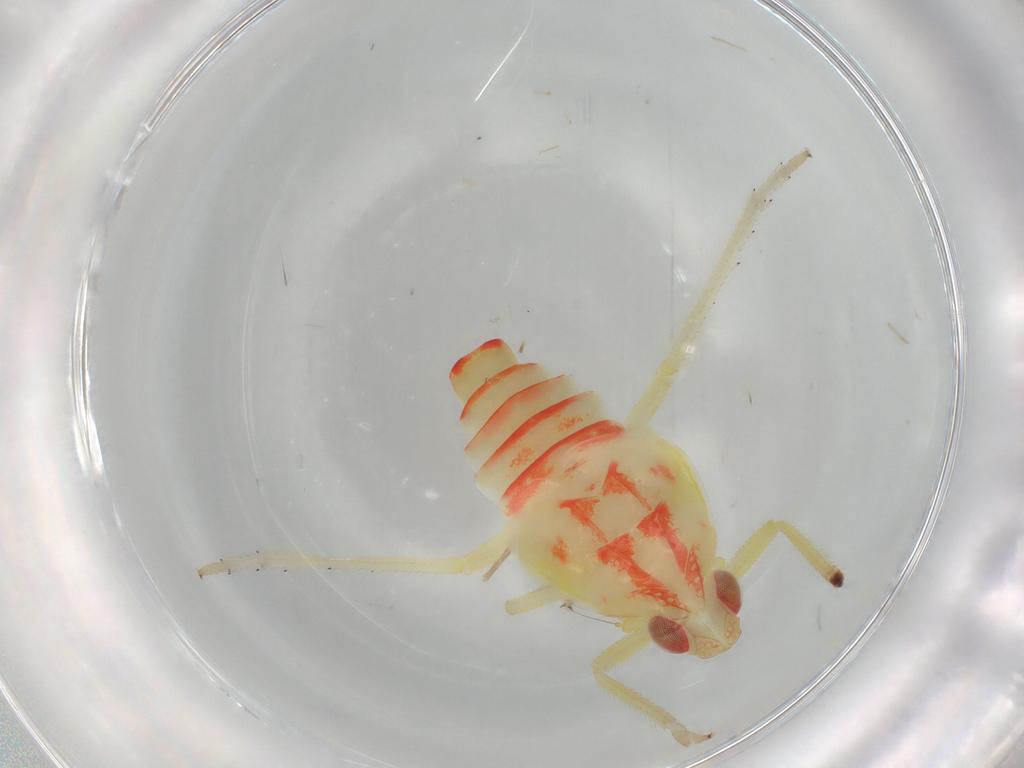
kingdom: Animalia
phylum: Arthropoda
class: Insecta
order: Hemiptera
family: Tropiduchidae
